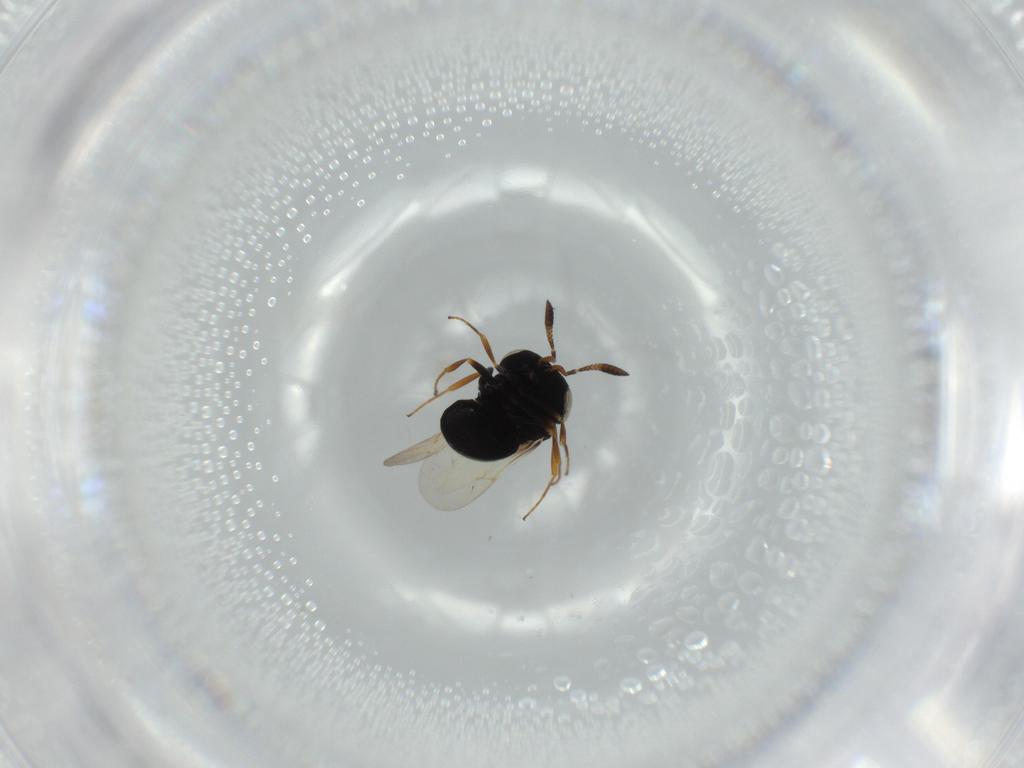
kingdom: Animalia
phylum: Arthropoda
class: Insecta
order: Hymenoptera
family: Scelionidae
